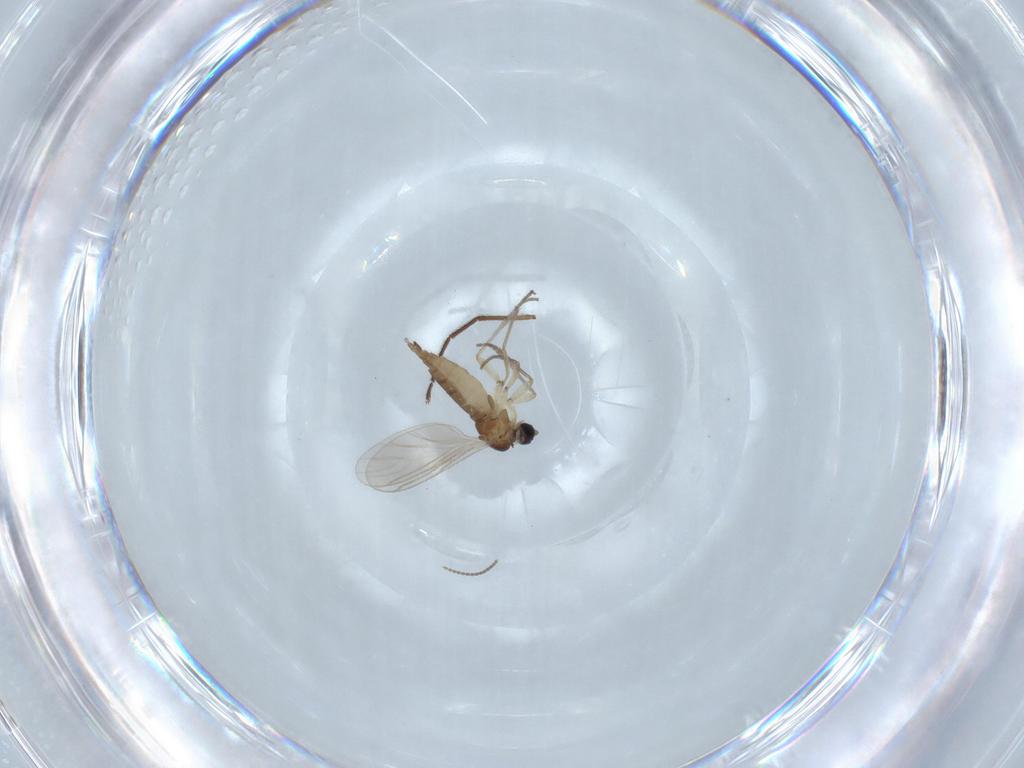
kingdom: Animalia
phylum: Arthropoda
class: Insecta
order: Diptera
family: Sciaridae
